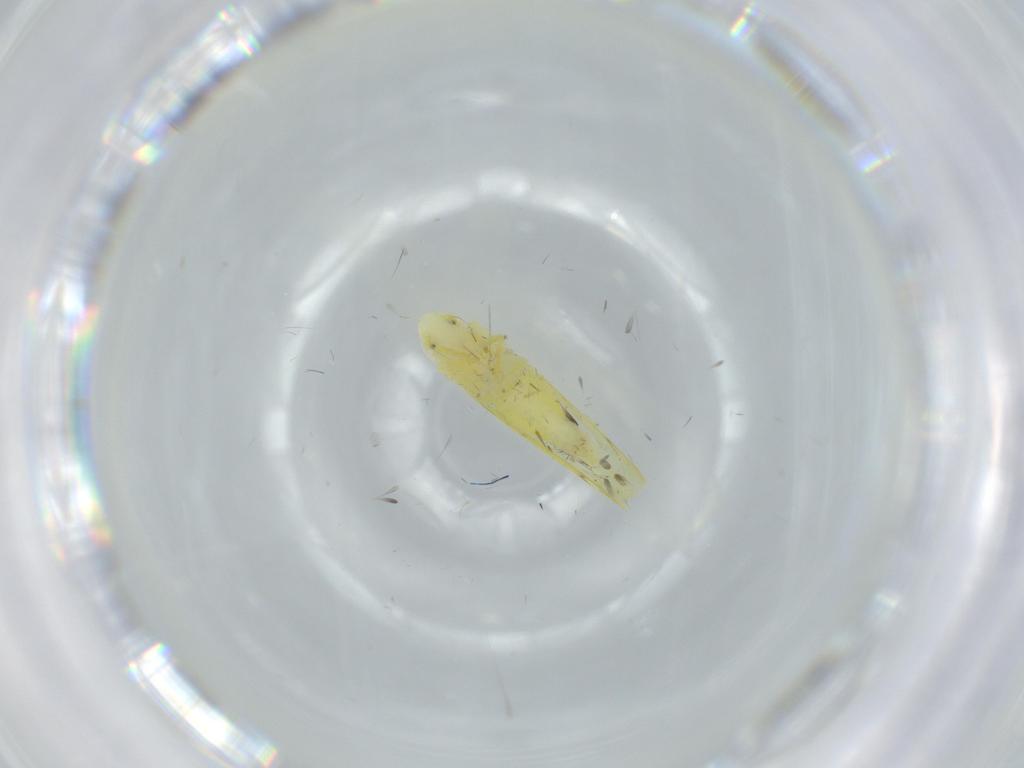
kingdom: Animalia
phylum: Arthropoda
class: Insecta
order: Hemiptera
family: Cicadellidae
